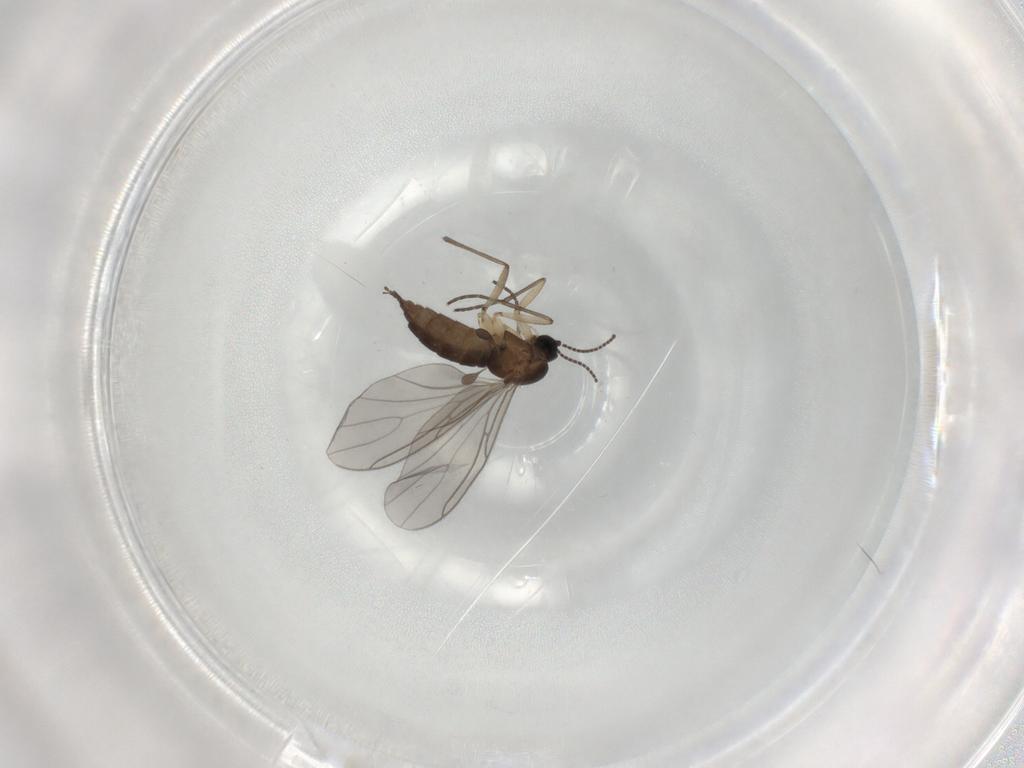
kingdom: Animalia
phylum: Arthropoda
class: Insecta
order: Diptera
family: Sciaridae
